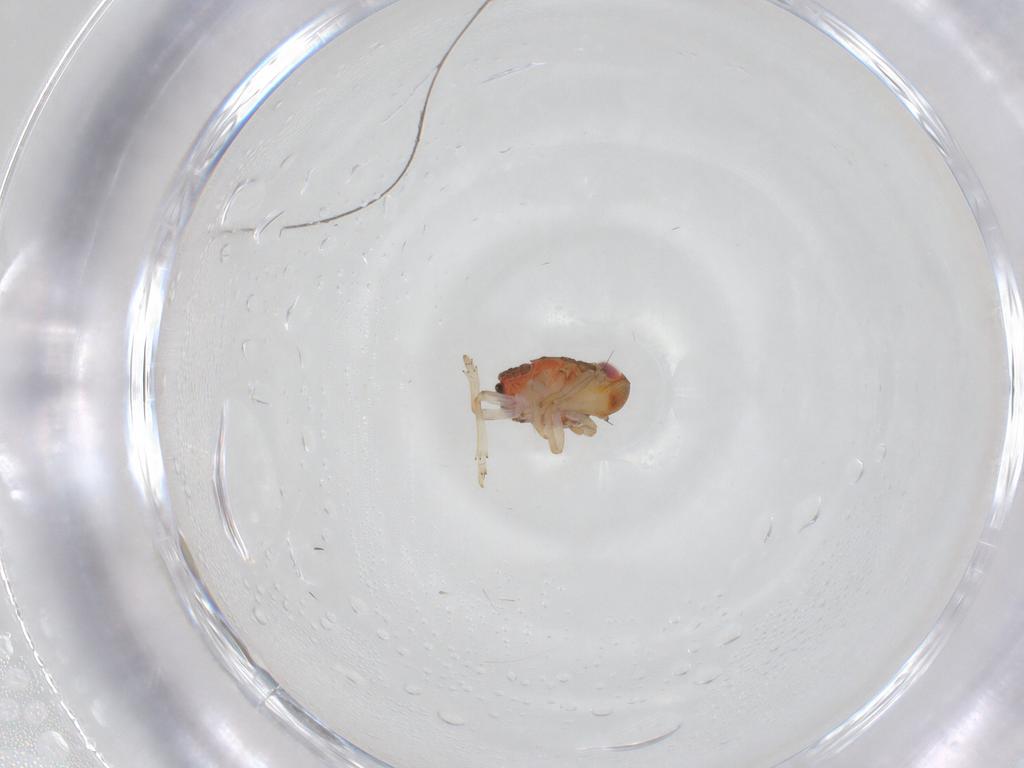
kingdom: Animalia
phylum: Arthropoda
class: Insecta
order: Hemiptera
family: Issidae
